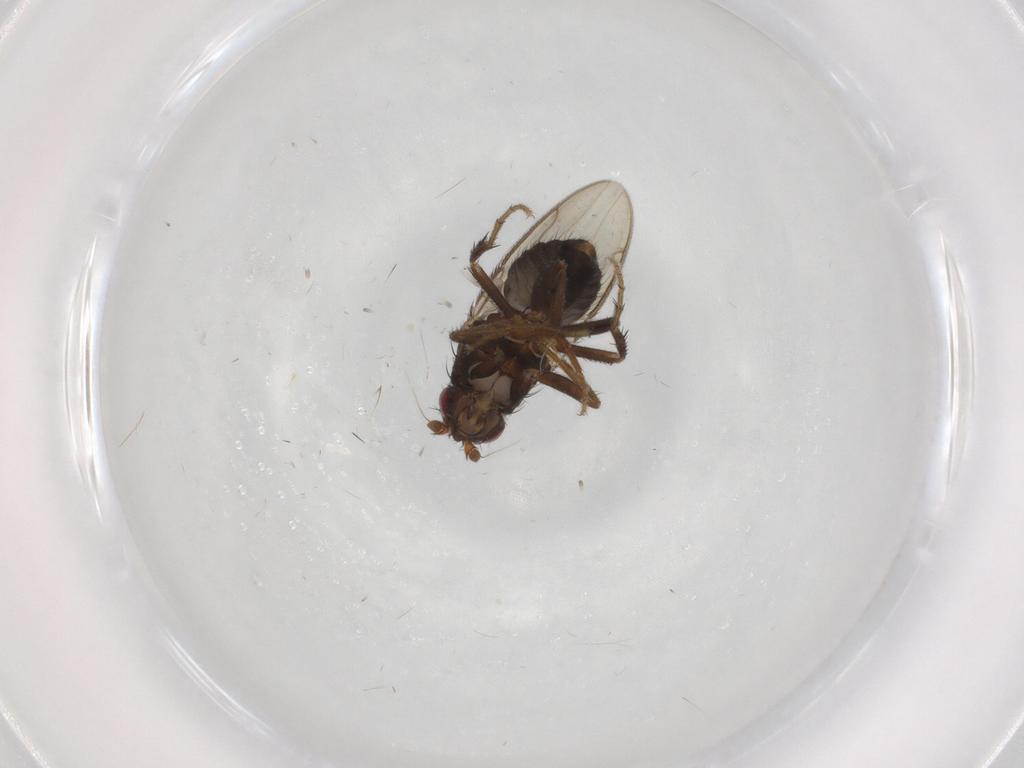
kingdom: Animalia
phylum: Arthropoda
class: Insecta
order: Diptera
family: Sphaeroceridae
